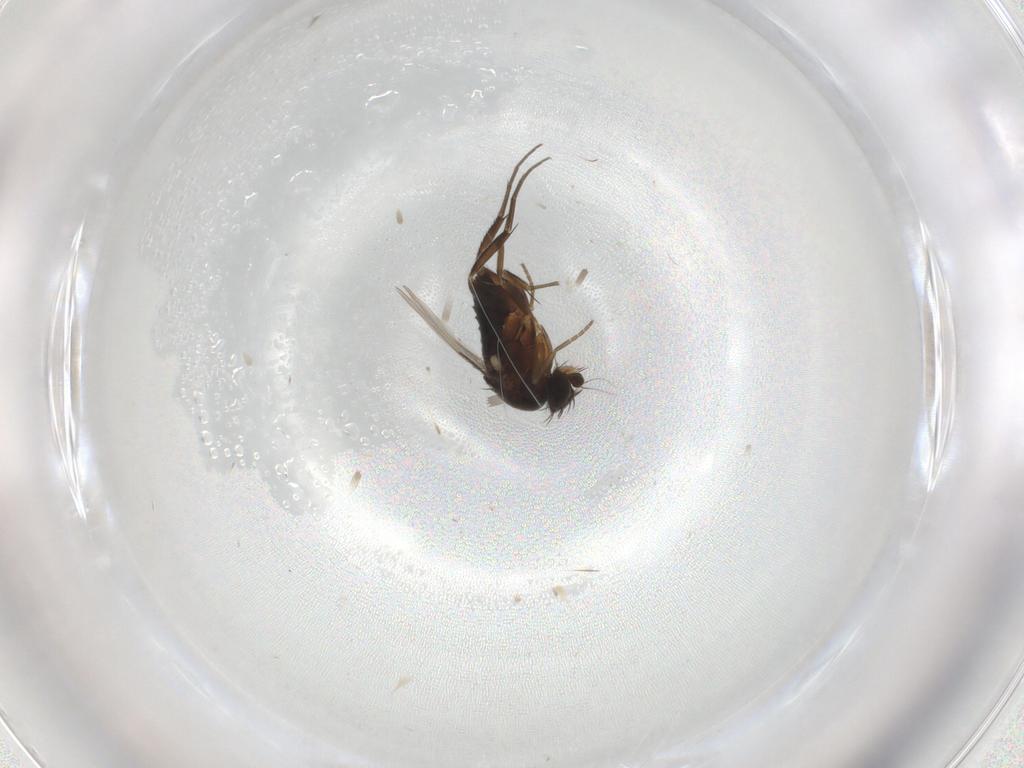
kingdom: Animalia
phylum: Arthropoda
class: Insecta
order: Diptera
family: Phoridae
